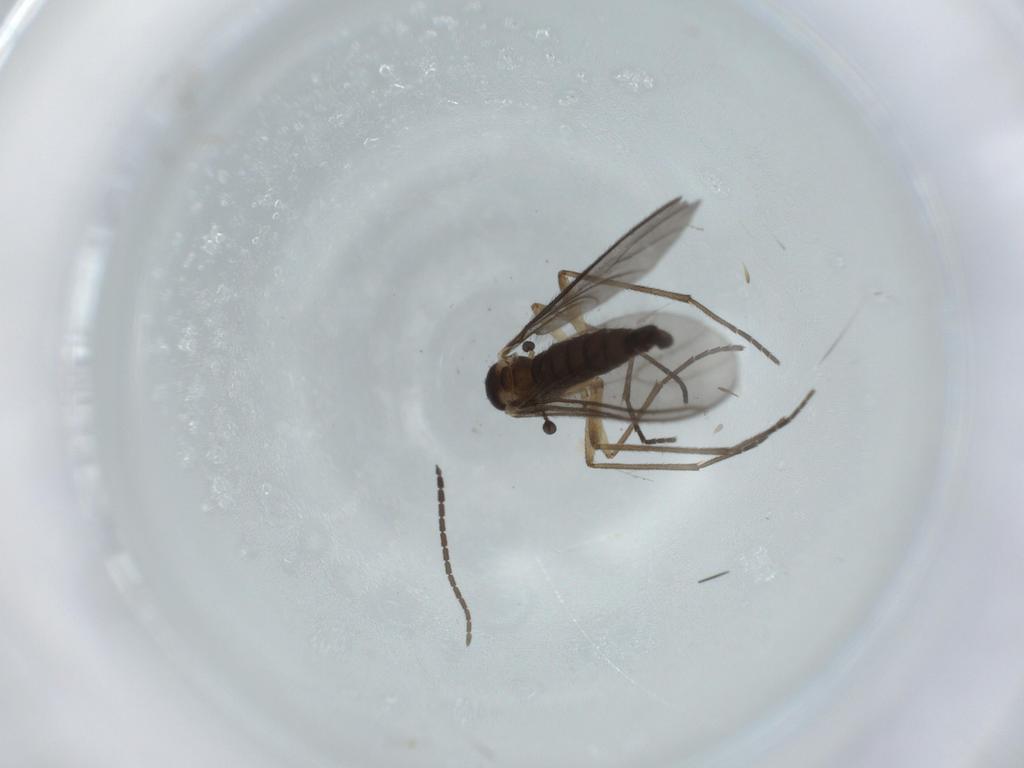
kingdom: Animalia
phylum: Arthropoda
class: Insecta
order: Diptera
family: Sciaridae
